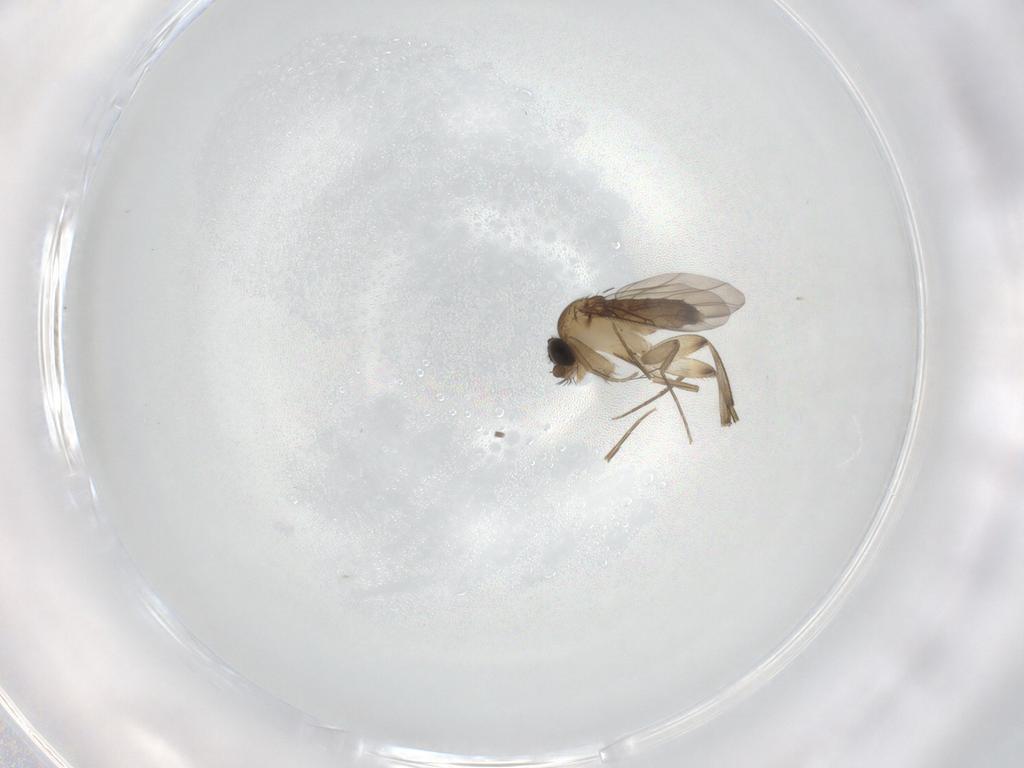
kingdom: Animalia
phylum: Arthropoda
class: Insecta
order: Diptera
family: Phoridae
